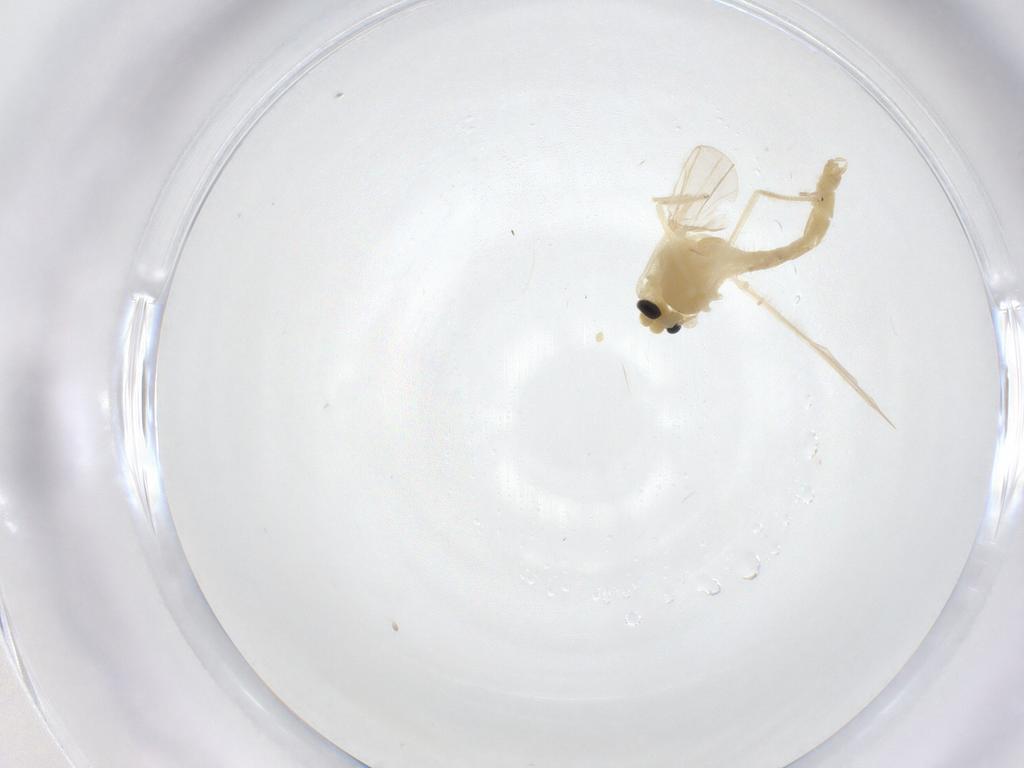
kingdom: Animalia
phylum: Arthropoda
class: Insecta
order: Diptera
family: Chironomidae
